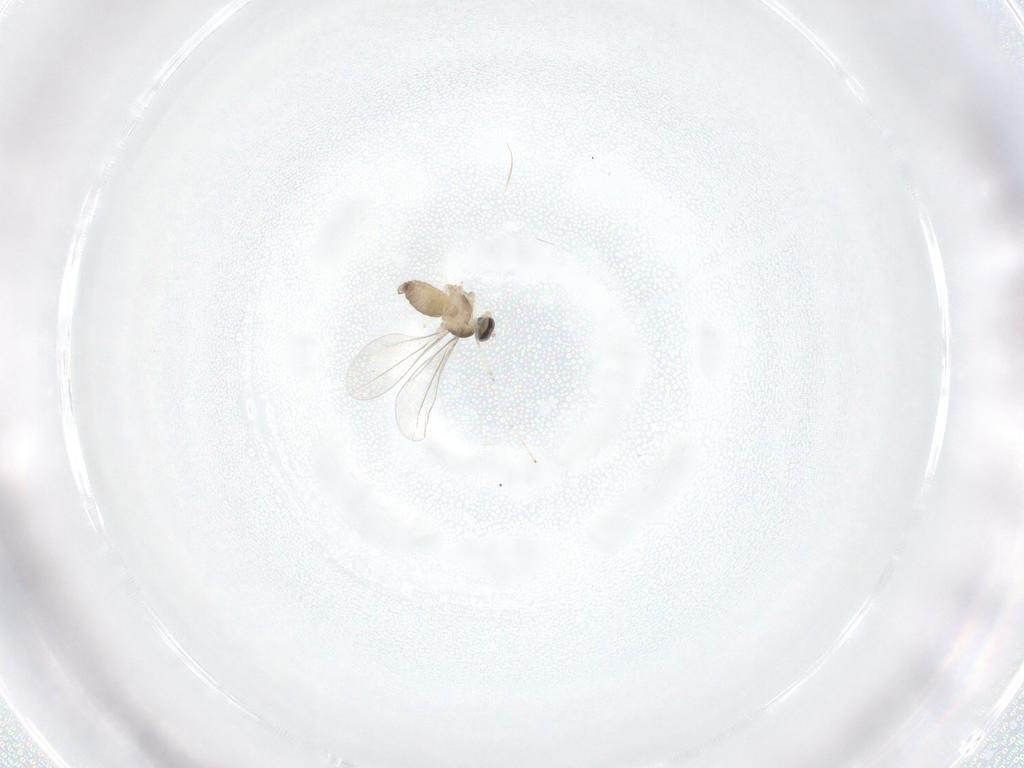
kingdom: Animalia
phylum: Arthropoda
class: Insecta
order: Diptera
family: Cecidomyiidae
